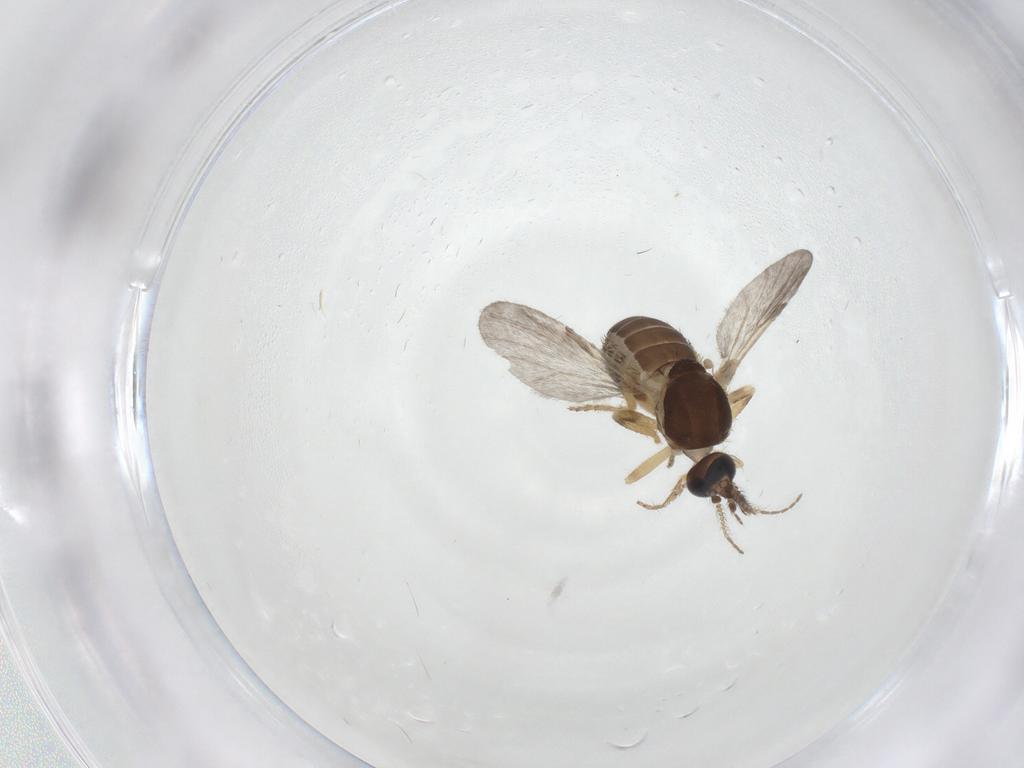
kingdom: Animalia
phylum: Arthropoda
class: Insecta
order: Diptera
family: Ceratopogonidae
